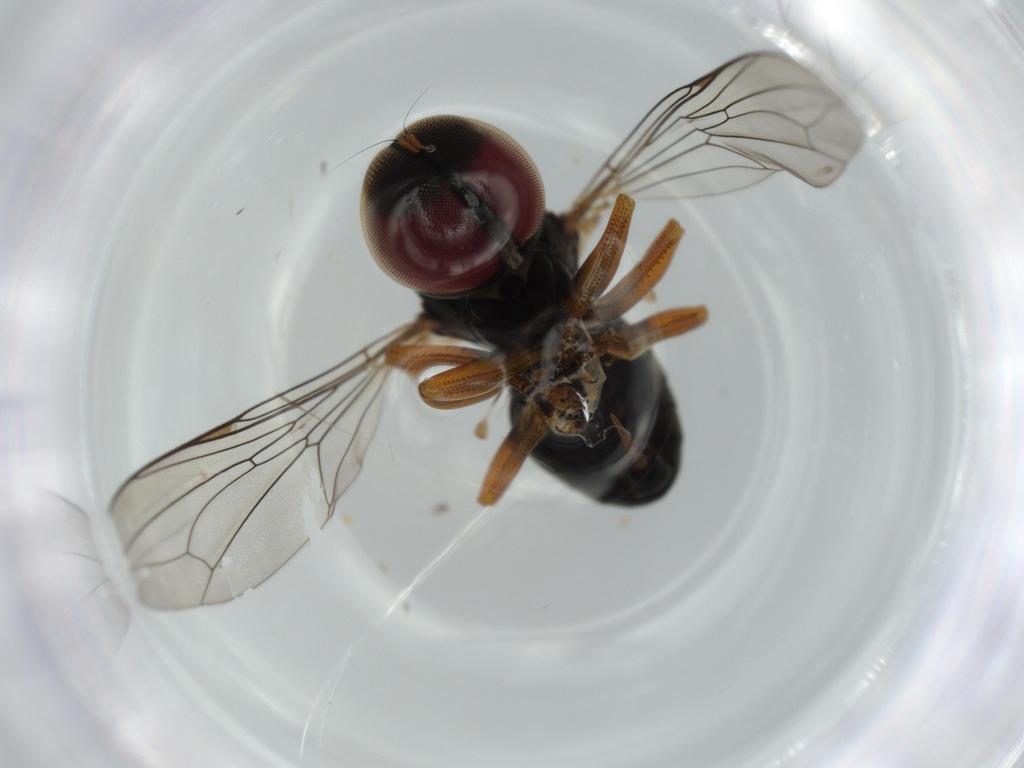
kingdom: Animalia
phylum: Arthropoda
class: Insecta
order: Diptera
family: Pipunculidae
